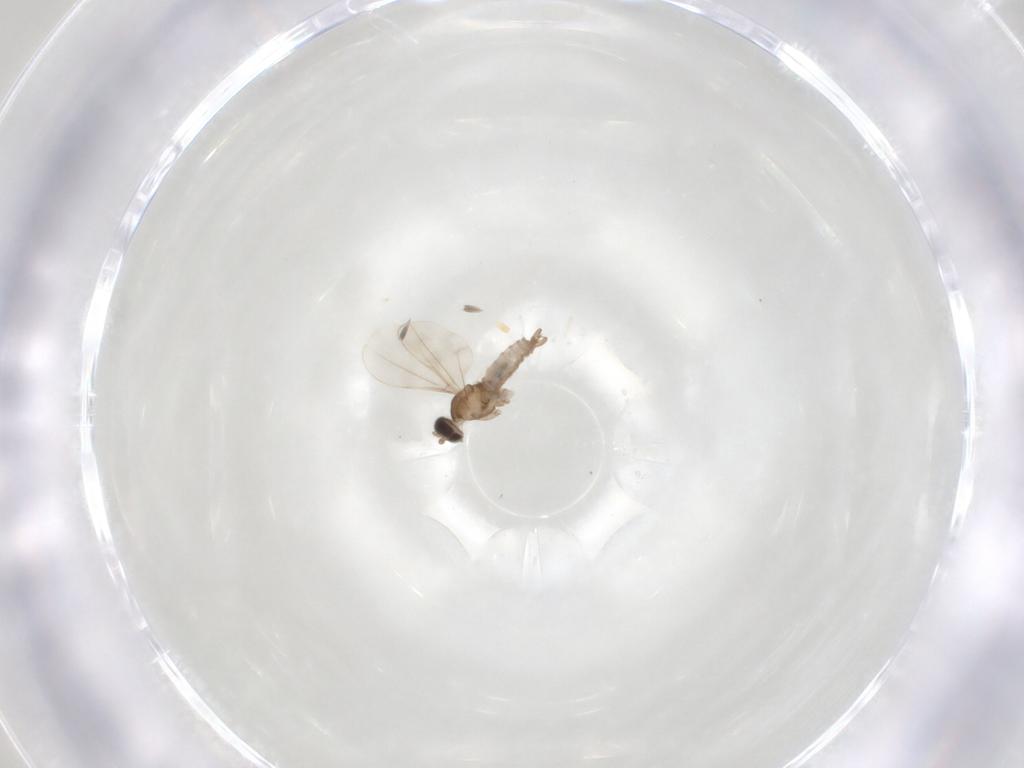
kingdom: Animalia
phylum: Arthropoda
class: Insecta
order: Diptera
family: Cecidomyiidae
